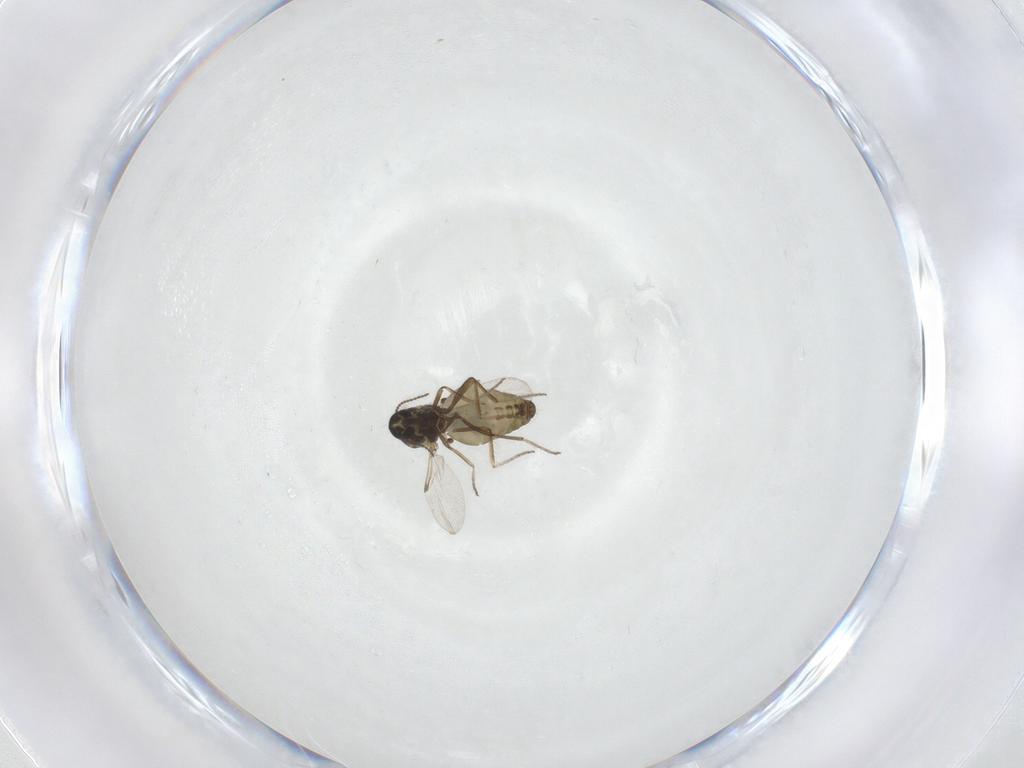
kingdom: Animalia
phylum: Arthropoda
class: Insecta
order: Diptera
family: Ceratopogonidae
